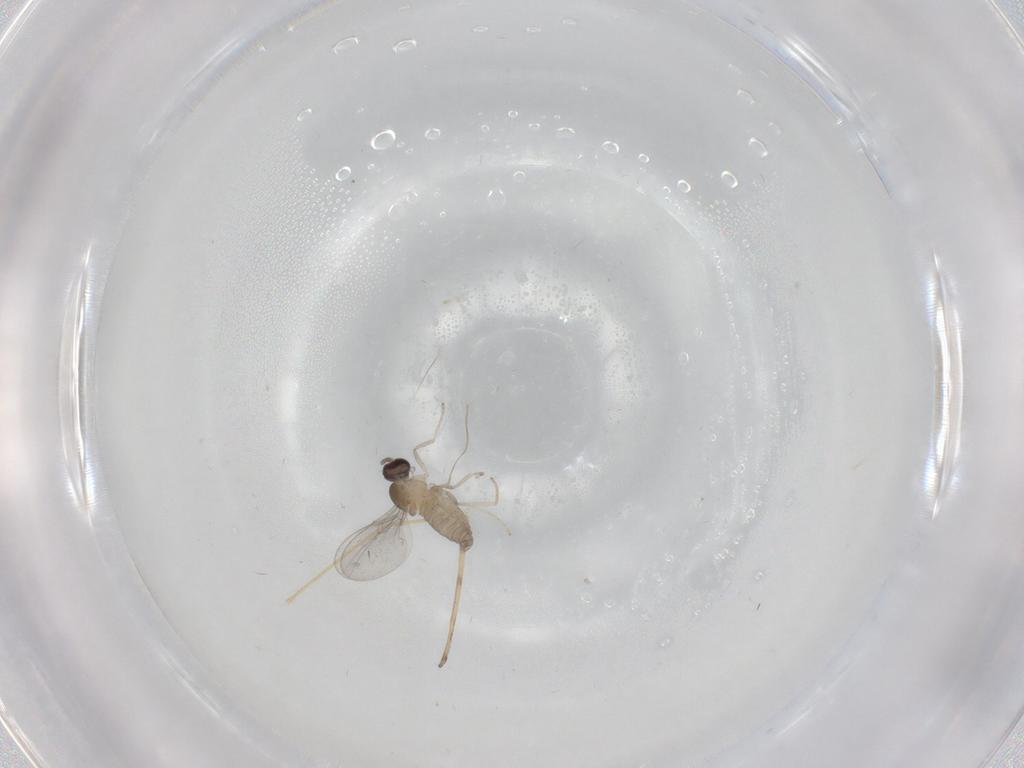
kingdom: Animalia
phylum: Arthropoda
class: Insecta
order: Diptera
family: Limoniidae
